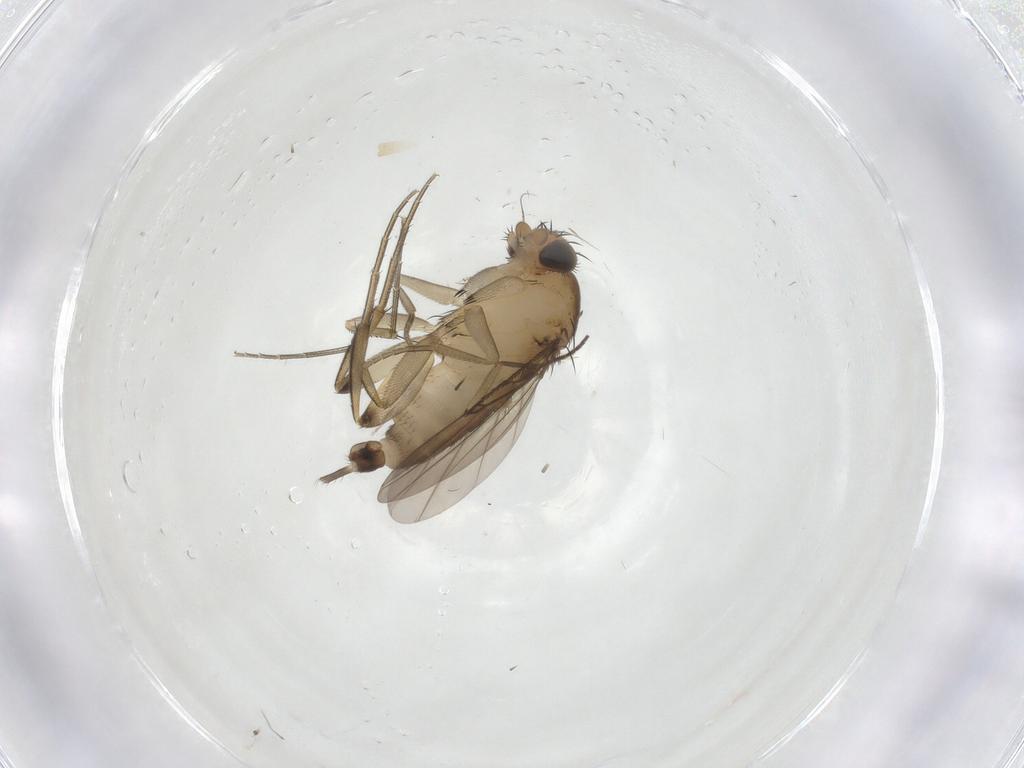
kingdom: Animalia
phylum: Arthropoda
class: Insecta
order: Diptera
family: Phoridae
